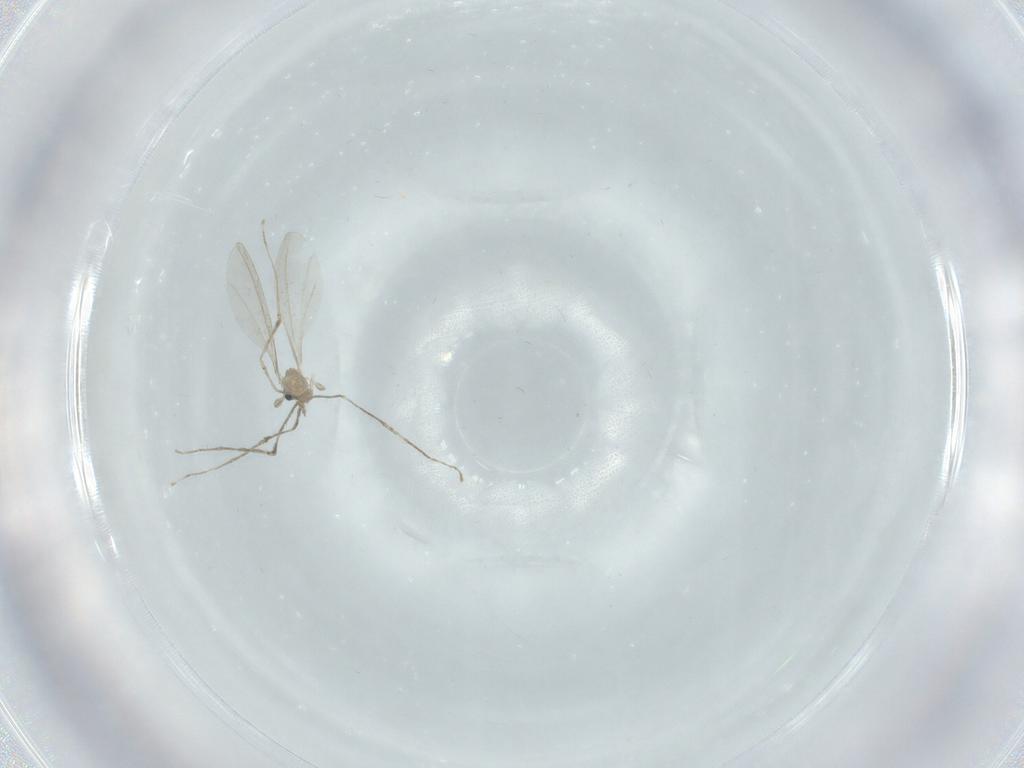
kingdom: Animalia
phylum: Arthropoda
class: Insecta
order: Diptera
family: Cecidomyiidae
